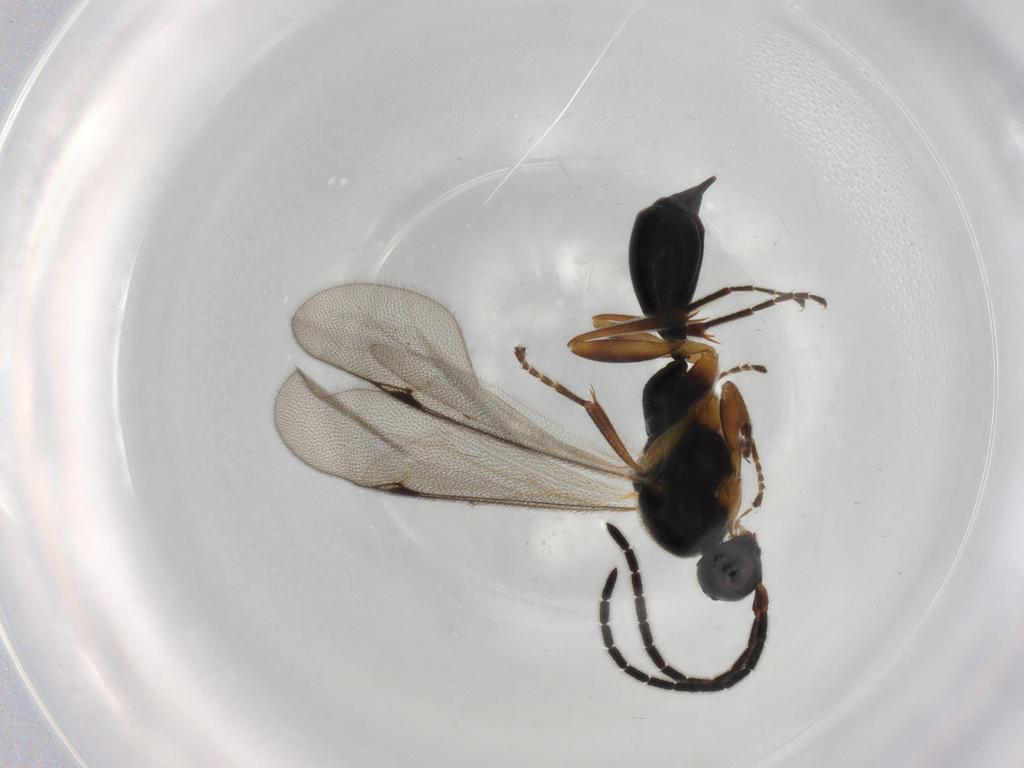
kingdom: Animalia
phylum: Arthropoda
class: Insecta
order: Hymenoptera
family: Proctotrupidae
